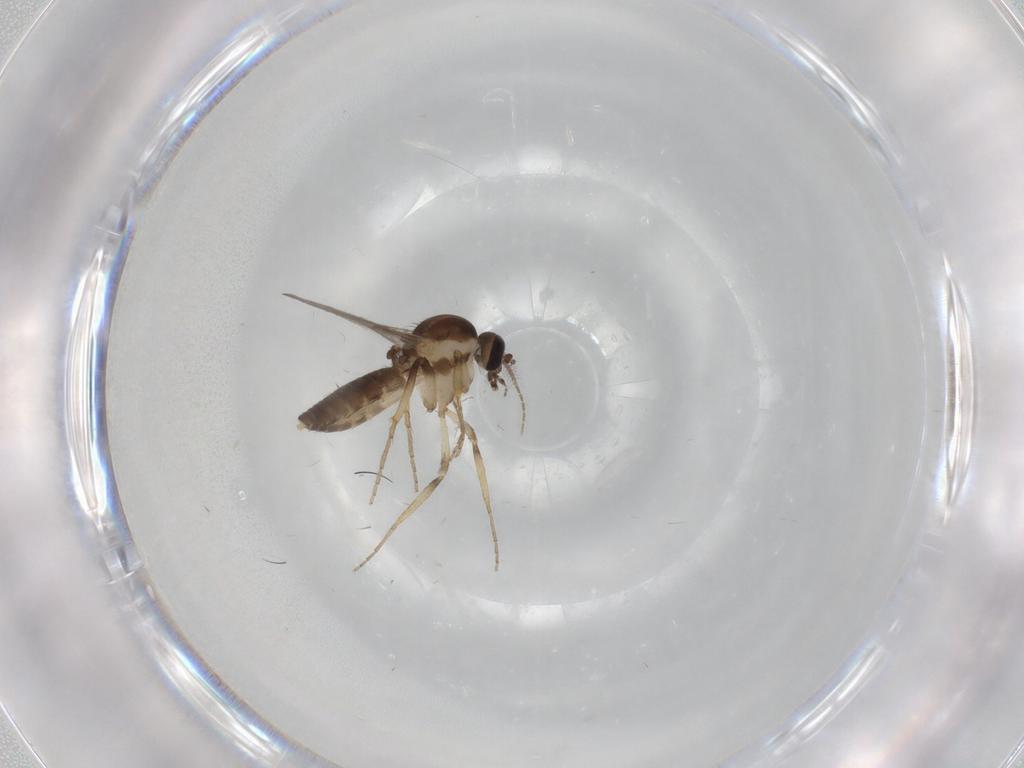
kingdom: Animalia
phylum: Arthropoda
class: Insecta
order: Diptera
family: Ceratopogonidae
